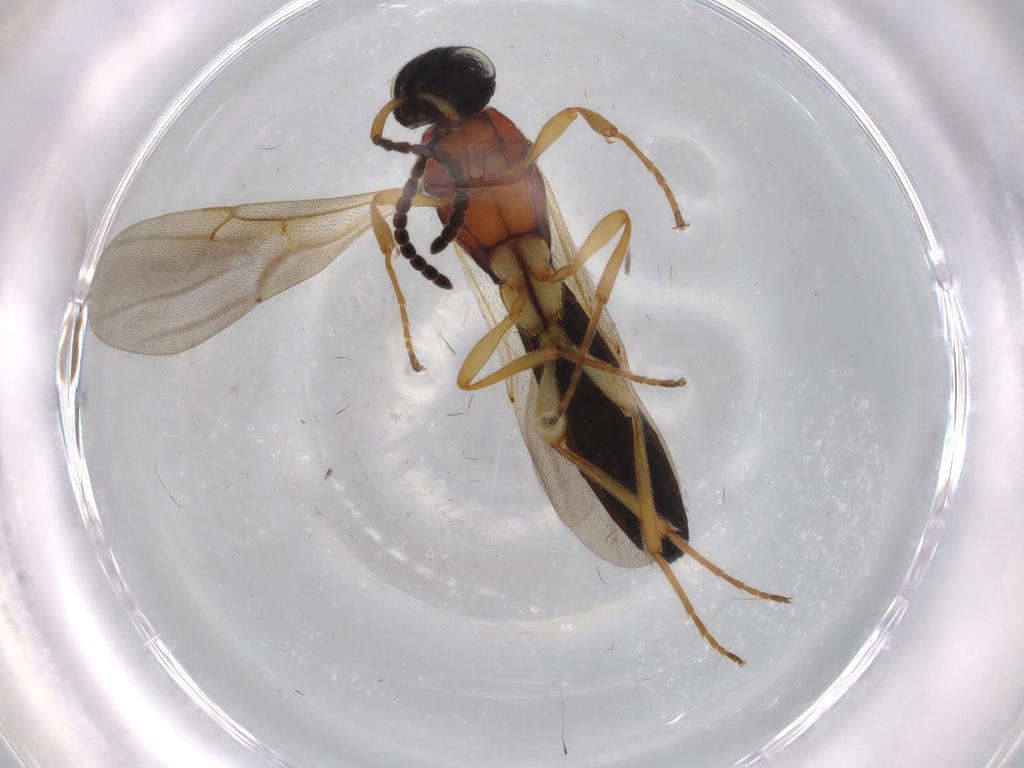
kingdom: Animalia
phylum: Arthropoda
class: Insecta
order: Hymenoptera
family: Scelionidae
